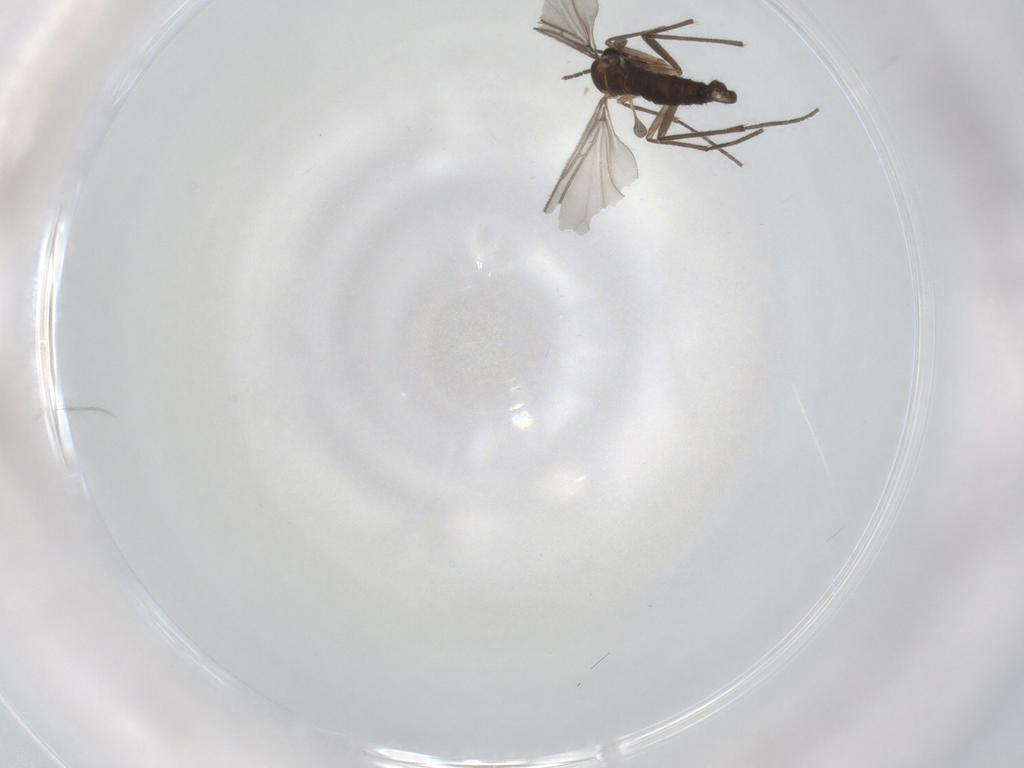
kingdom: Animalia
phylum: Arthropoda
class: Insecta
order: Diptera
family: Sciaridae
